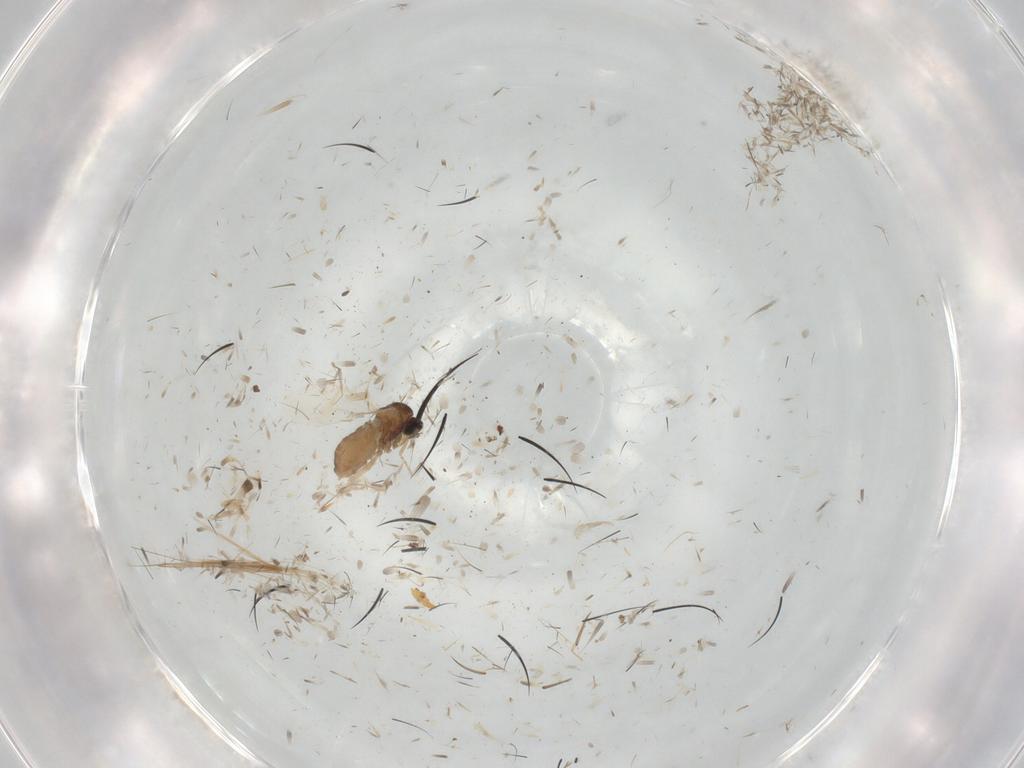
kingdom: Animalia
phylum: Arthropoda
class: Insecta
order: Diptera
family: Cecidomyiidae
